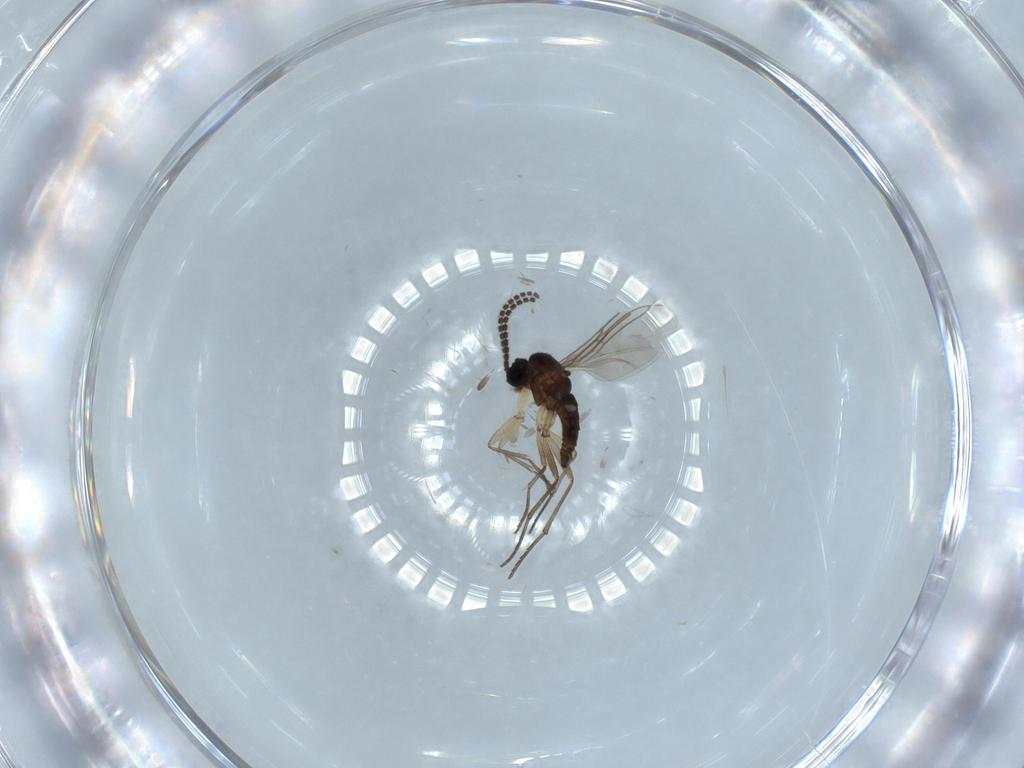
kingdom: Animalia
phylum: Arthropoda
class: Insecta
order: Diptera
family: Sciaridae
